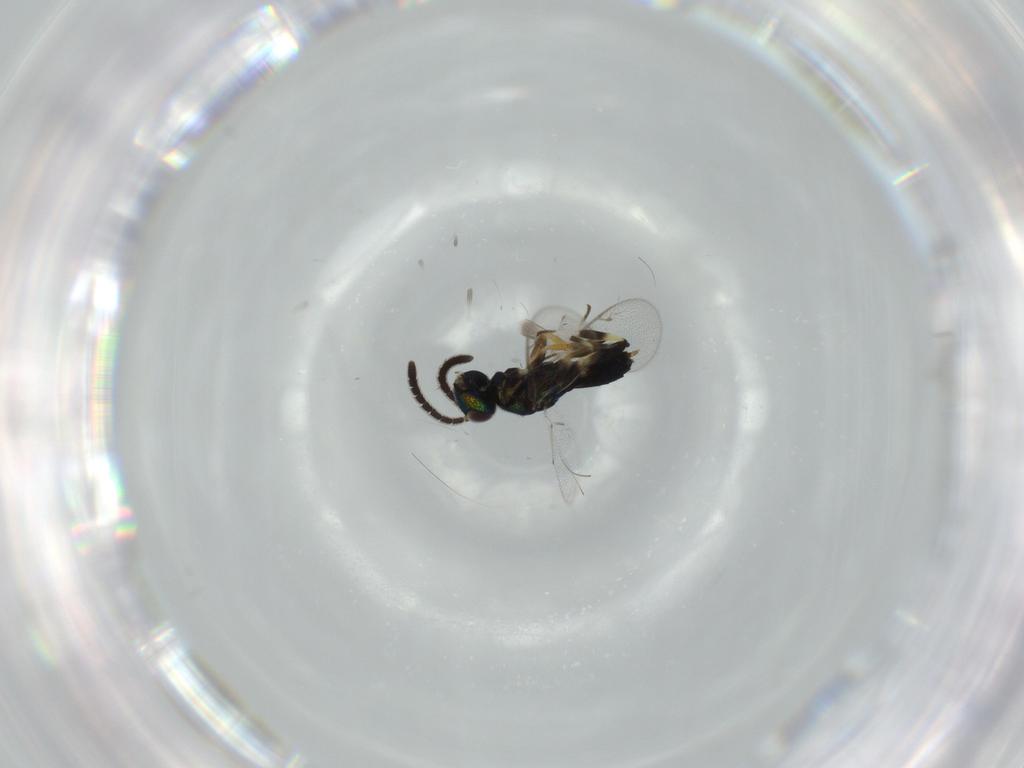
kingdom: Animalia
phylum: Arthropoda
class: Insecta
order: Hymenoptera
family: Eupelmidae
